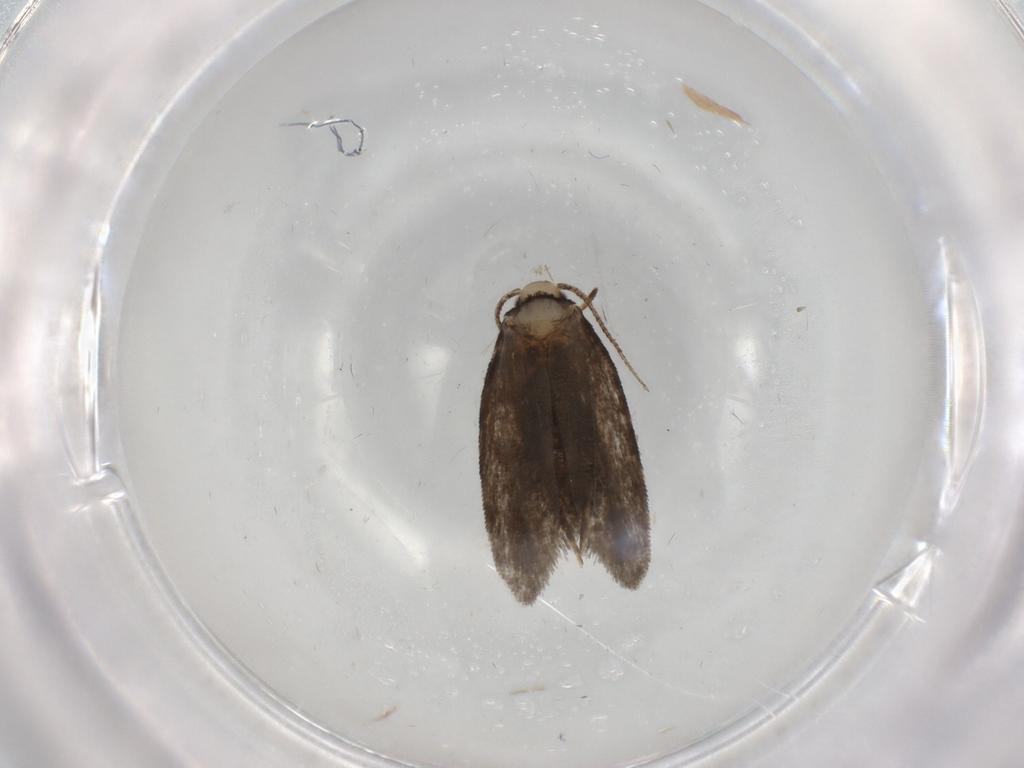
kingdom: Animalia
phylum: Arthropoda
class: Insecta
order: Lepidoptera
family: Psychidae
